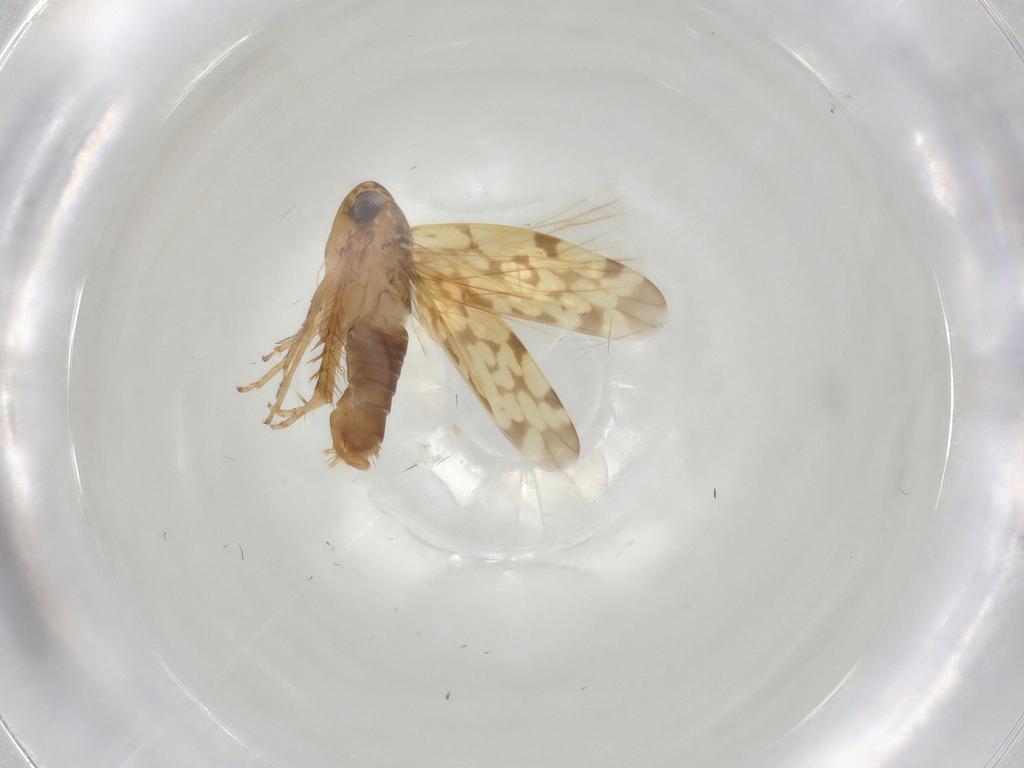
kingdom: Animalia
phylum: Arthropoda
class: Insecta
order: Hemiptera
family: Cicadellidae
